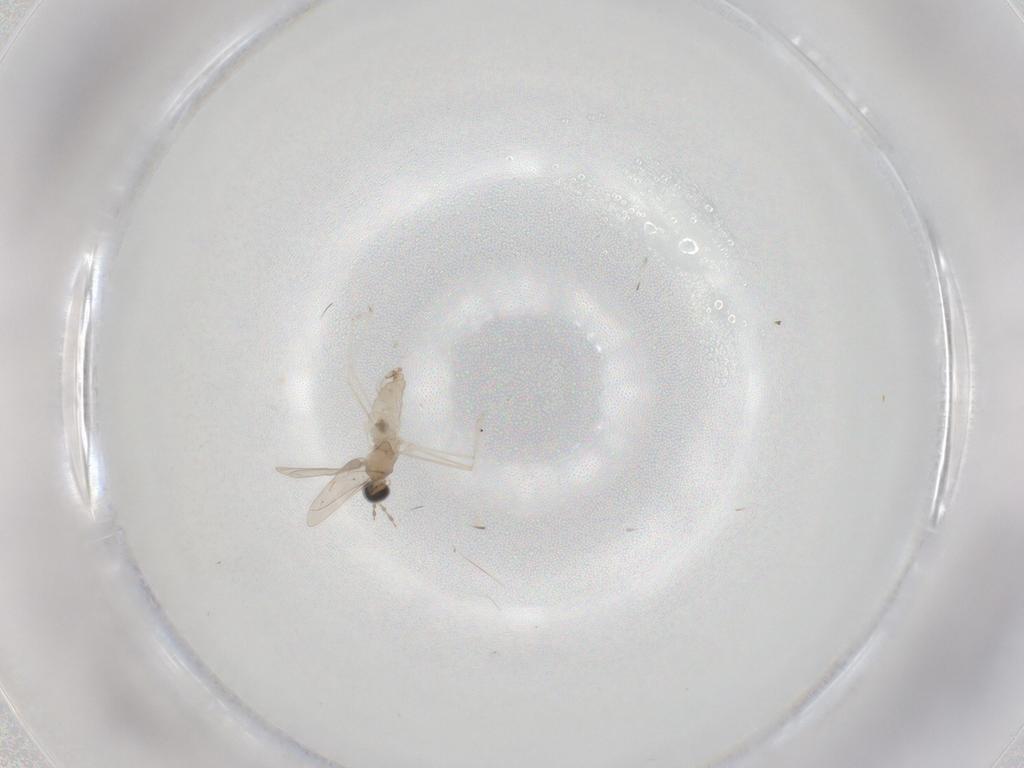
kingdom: Animalia
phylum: Arthropoda
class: Insecta
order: Diptera
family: Cecidomyiidae
